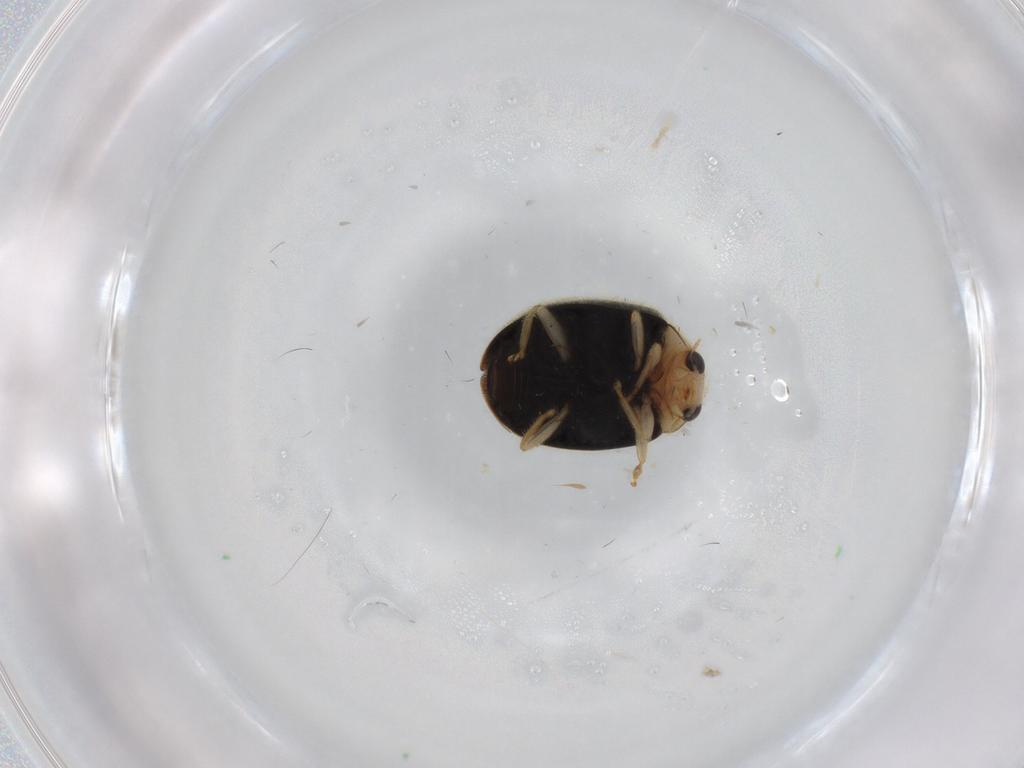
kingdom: Animalia
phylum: Arthropoda
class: Insecta
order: Coleoptera
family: Coccinellidae
